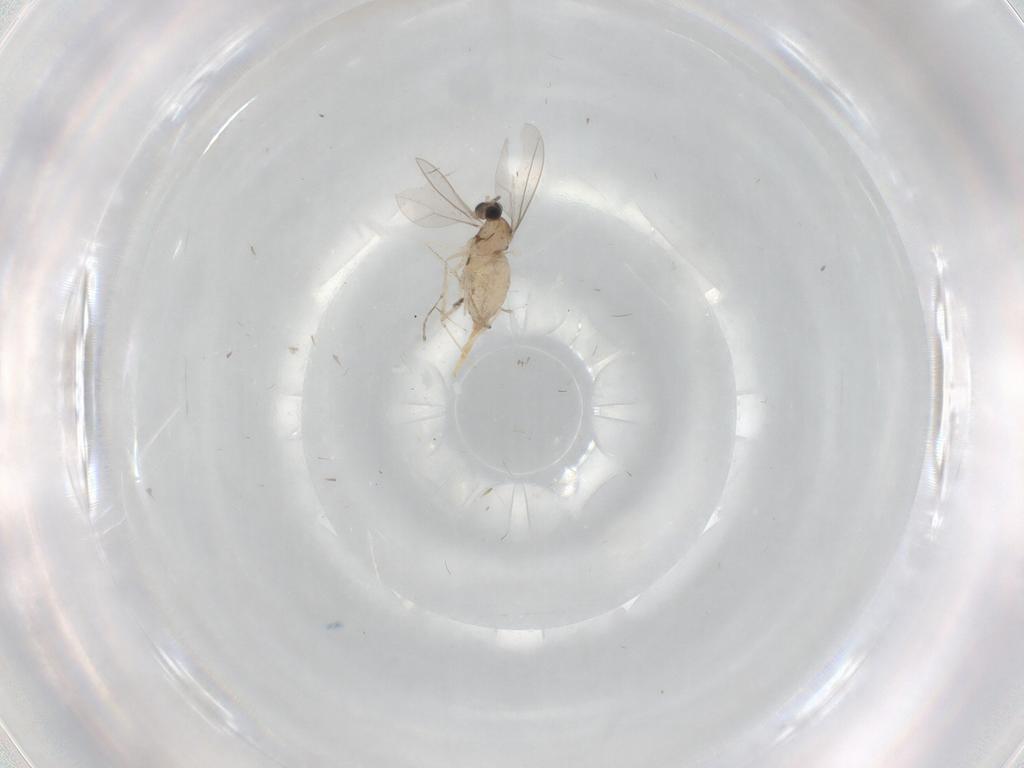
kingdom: Animalia
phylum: Arthropoda
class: Insecta
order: Diptera
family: Cecidomyiidae
